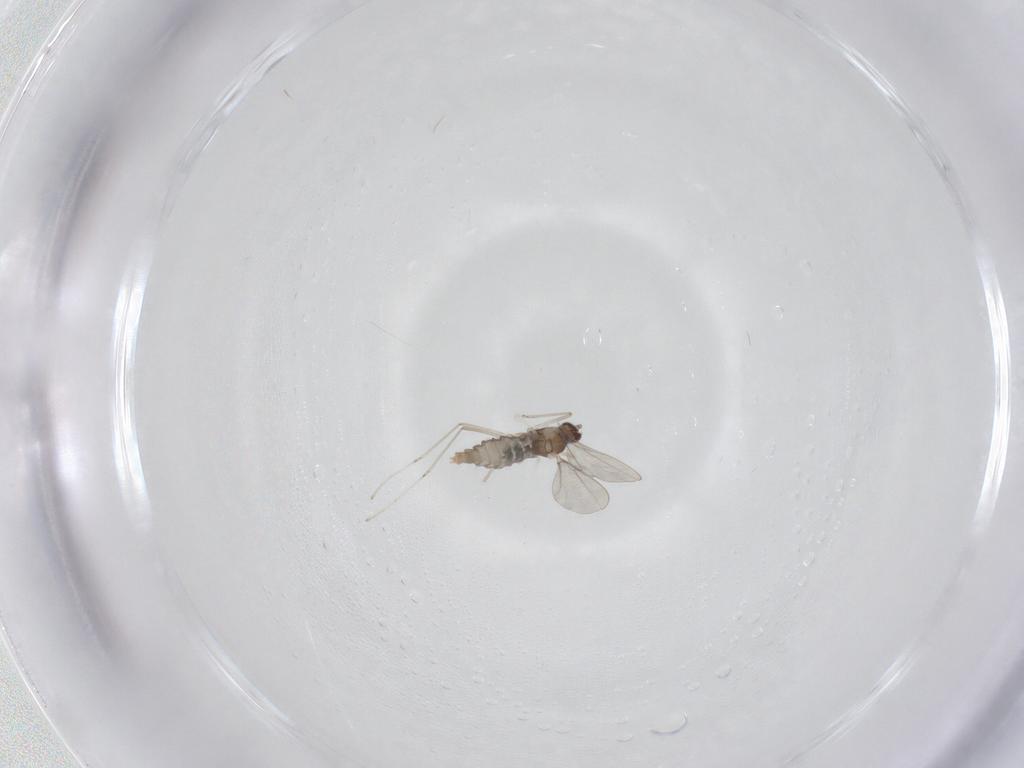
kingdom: Animalia
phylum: Arthropoda
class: Insecta
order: Diptera
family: Cecidomyiidae
